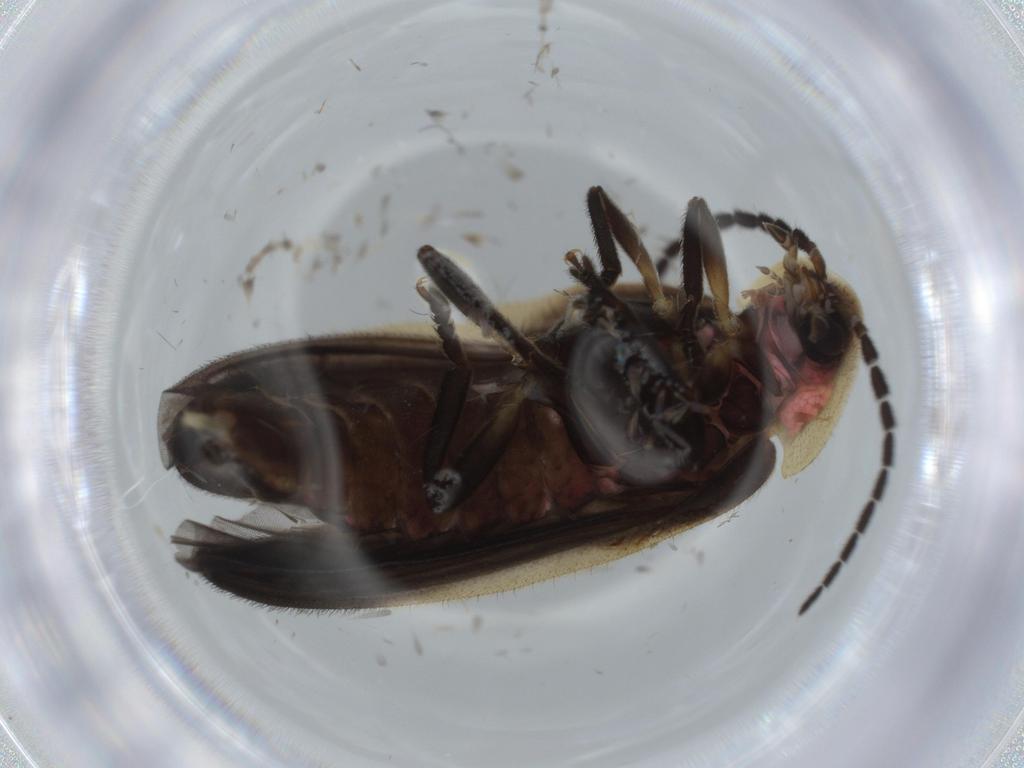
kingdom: Animalia
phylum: Arthropoda
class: Insecta
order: Coleoptera
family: Lampyridae
